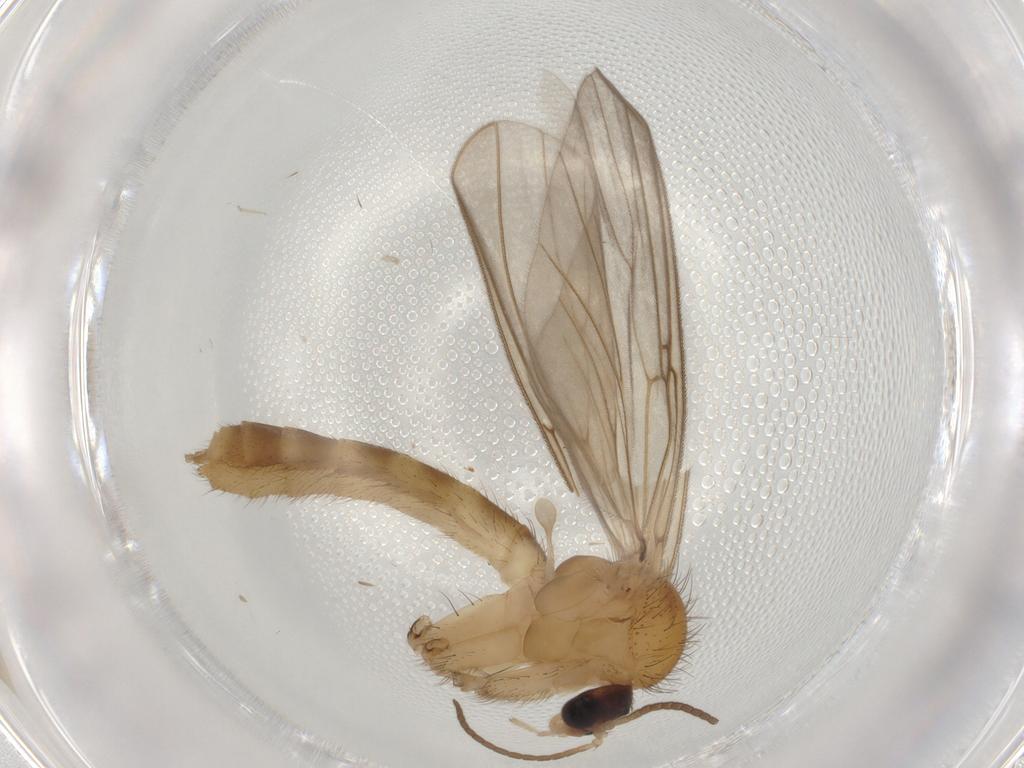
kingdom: Animalia
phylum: Arthropoda
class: Insecta
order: Diptera
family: Mycetophilidae
